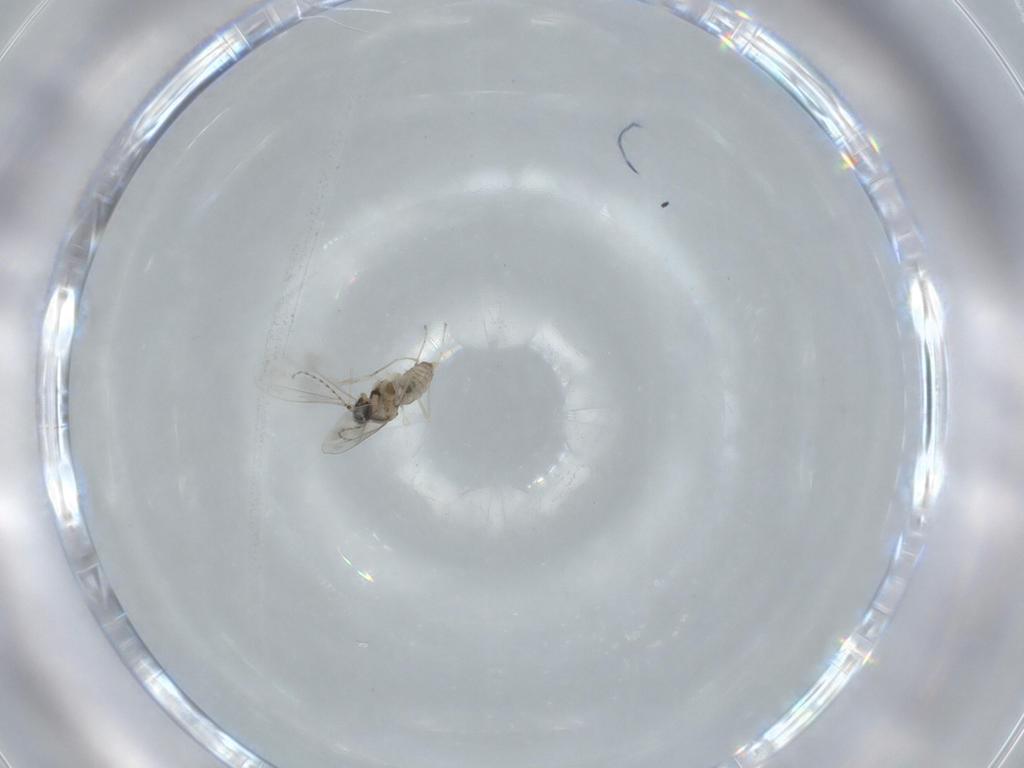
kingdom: Animalia
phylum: Arthropoda
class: Insecta
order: Diptera
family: Cecidomyiidae
